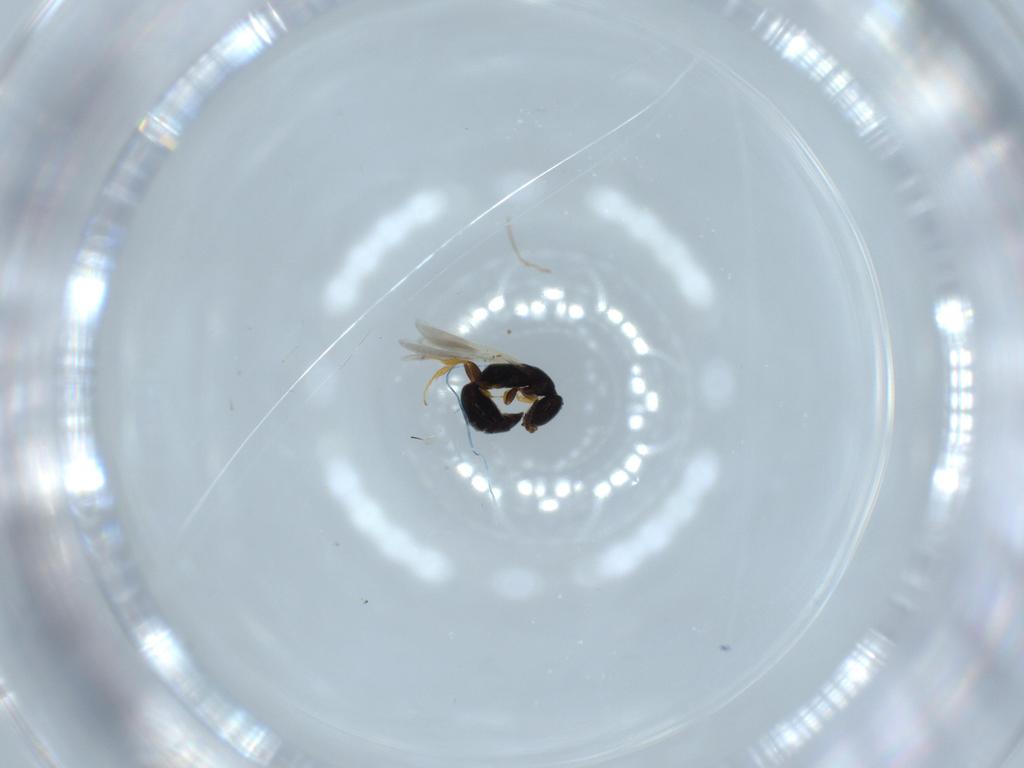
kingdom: Animalia
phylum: Arthropoda
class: Insecta
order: Hymenoptera
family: Bethylidae
